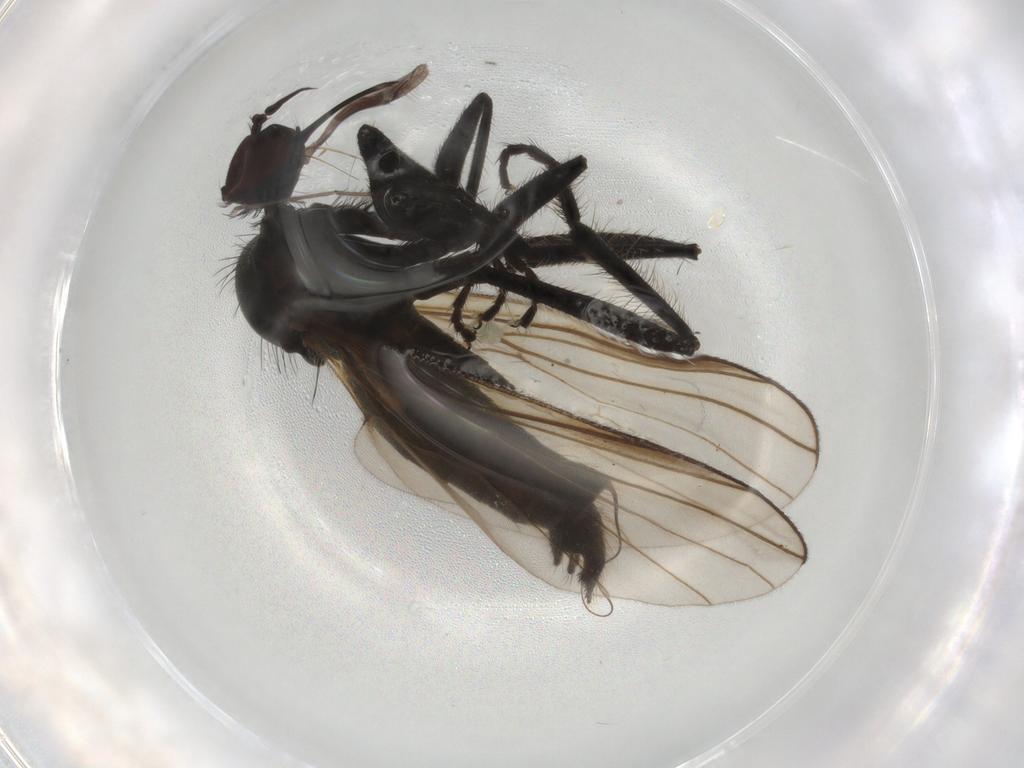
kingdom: Animalia
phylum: Arthropoda
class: Insecta
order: Diptera
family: Empididae
